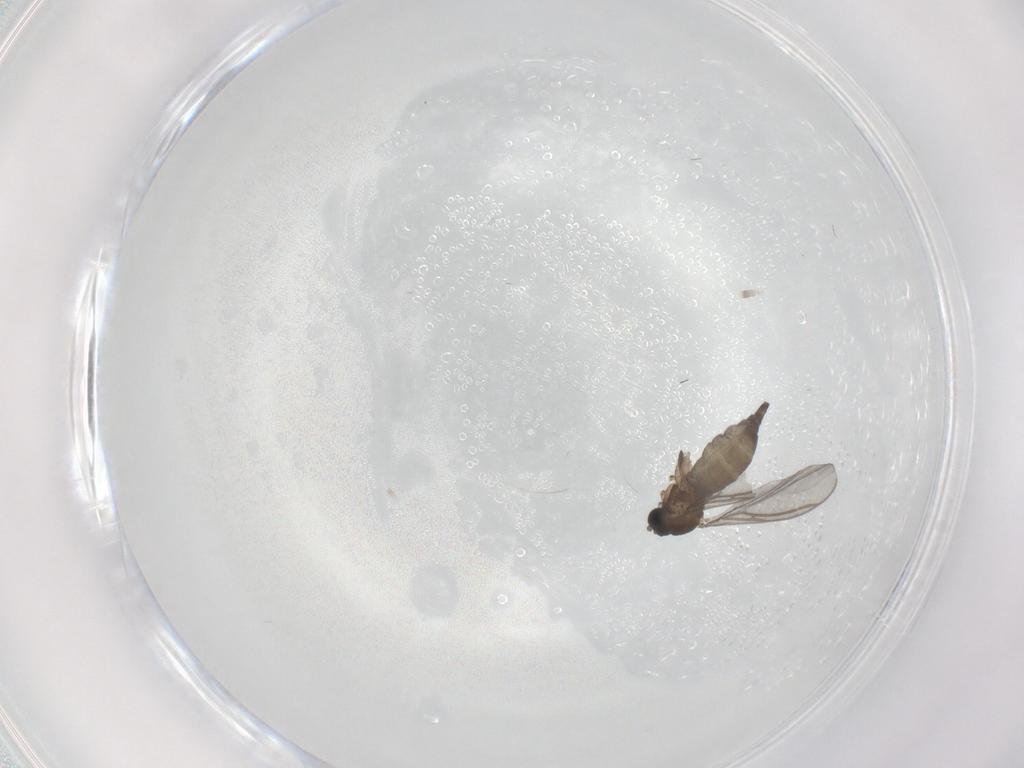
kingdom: Animalia
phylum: Arthropoda
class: Insecta
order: Diptera
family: Sciaridae
